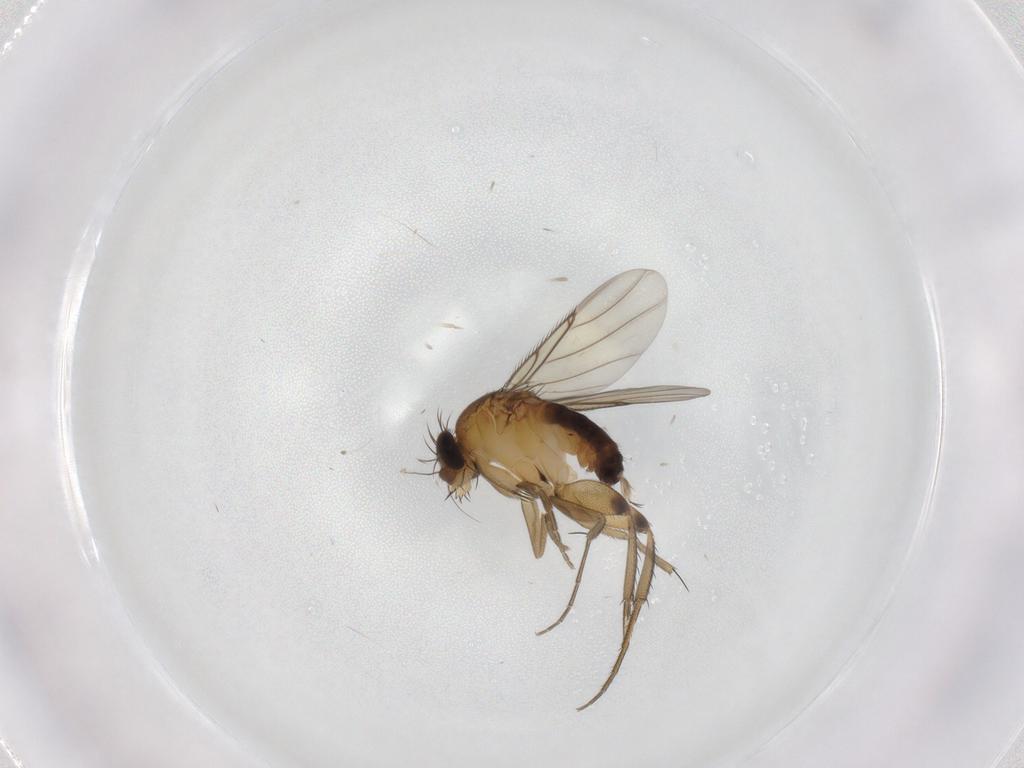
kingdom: Animalia
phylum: Arthropoda
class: Insecta
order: Diptera
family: Phoridae
